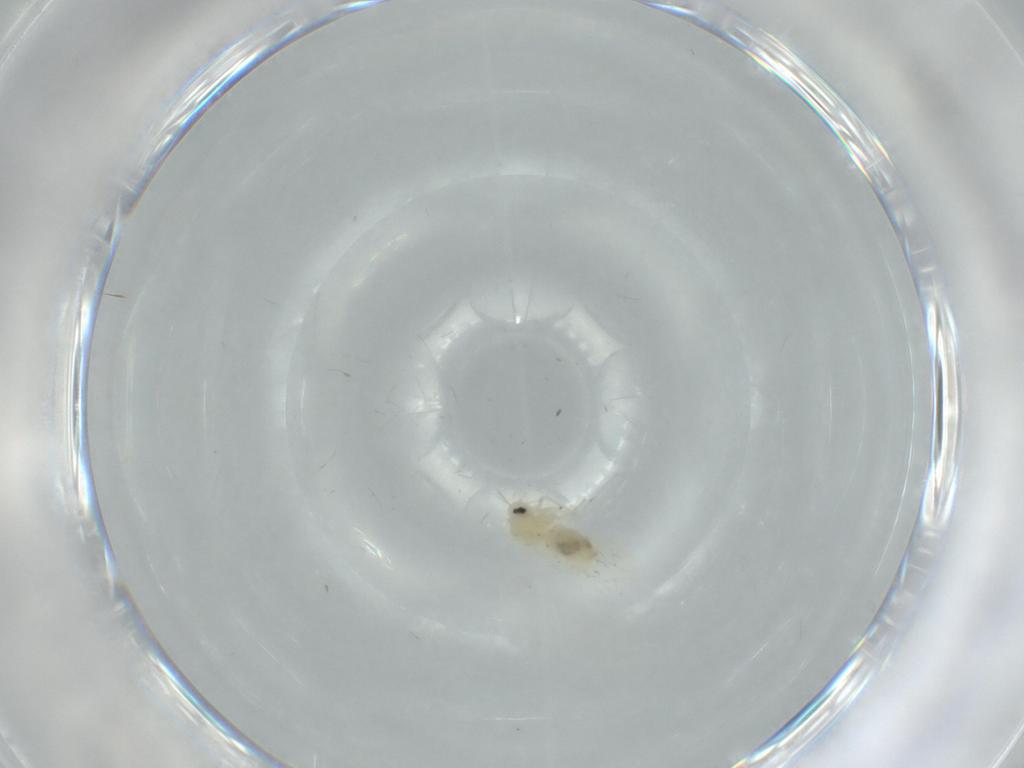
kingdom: Animalia
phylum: Arthropoda
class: Insecta
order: Hemiptera
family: Aleyrodidae
